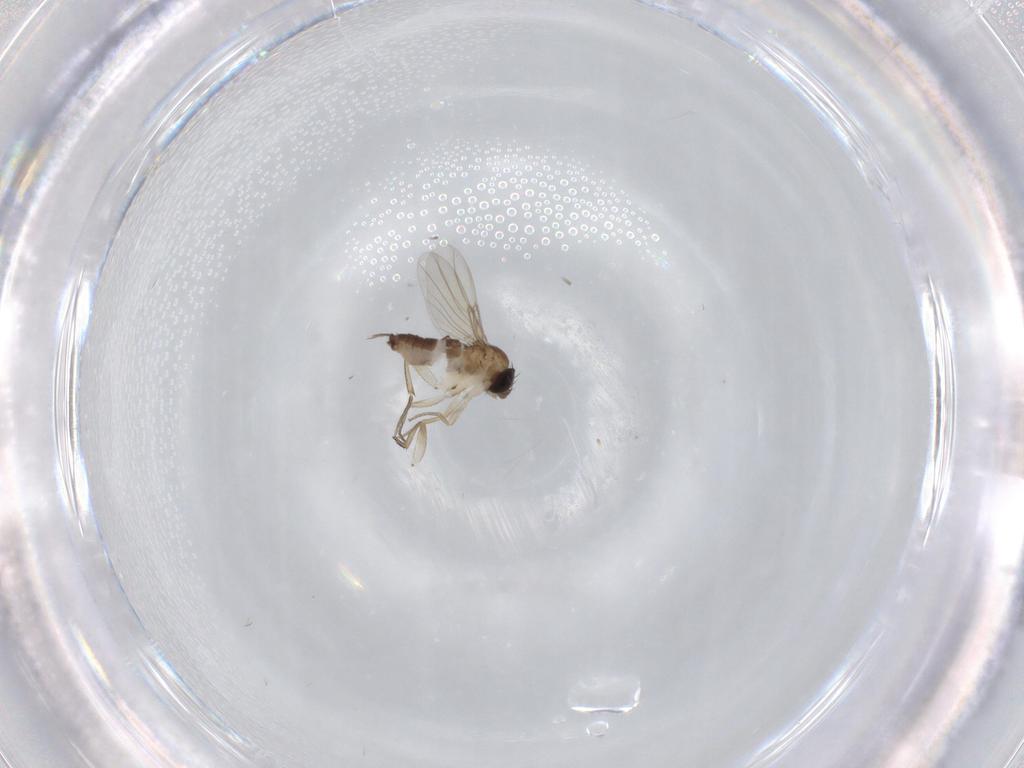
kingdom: Animalia
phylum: Arthropoda
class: Insecta
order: Diptera
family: Phoridae
